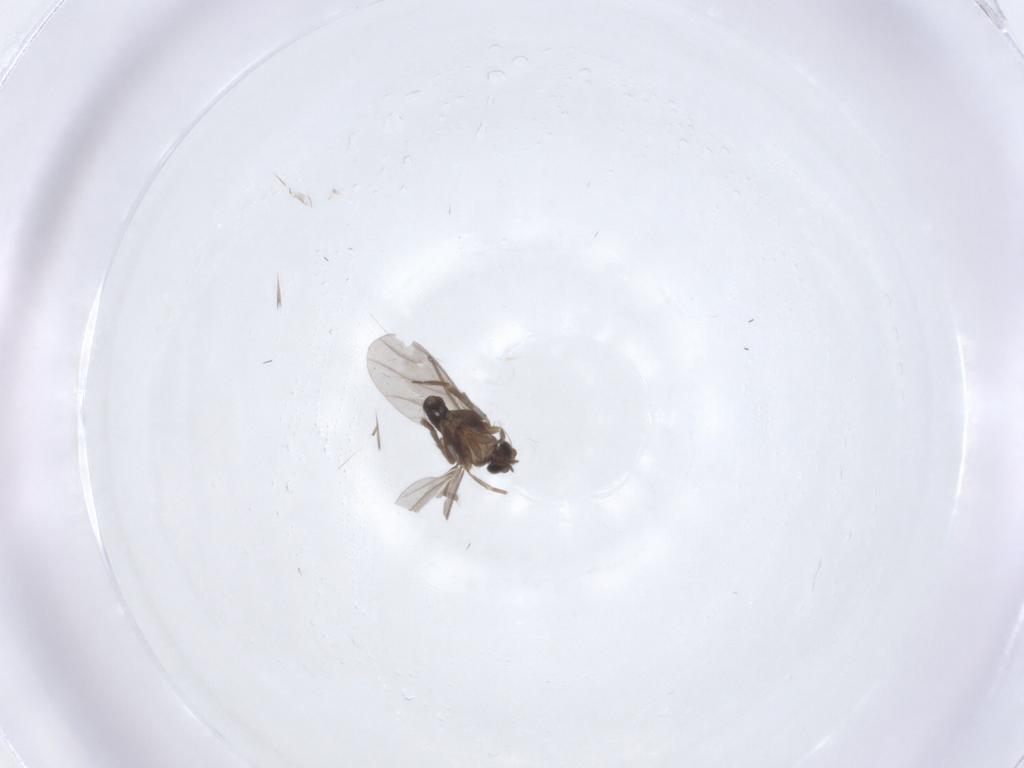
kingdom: Animalia
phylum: Arthropoda
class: Insecta
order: Diptera
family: Phoridae
